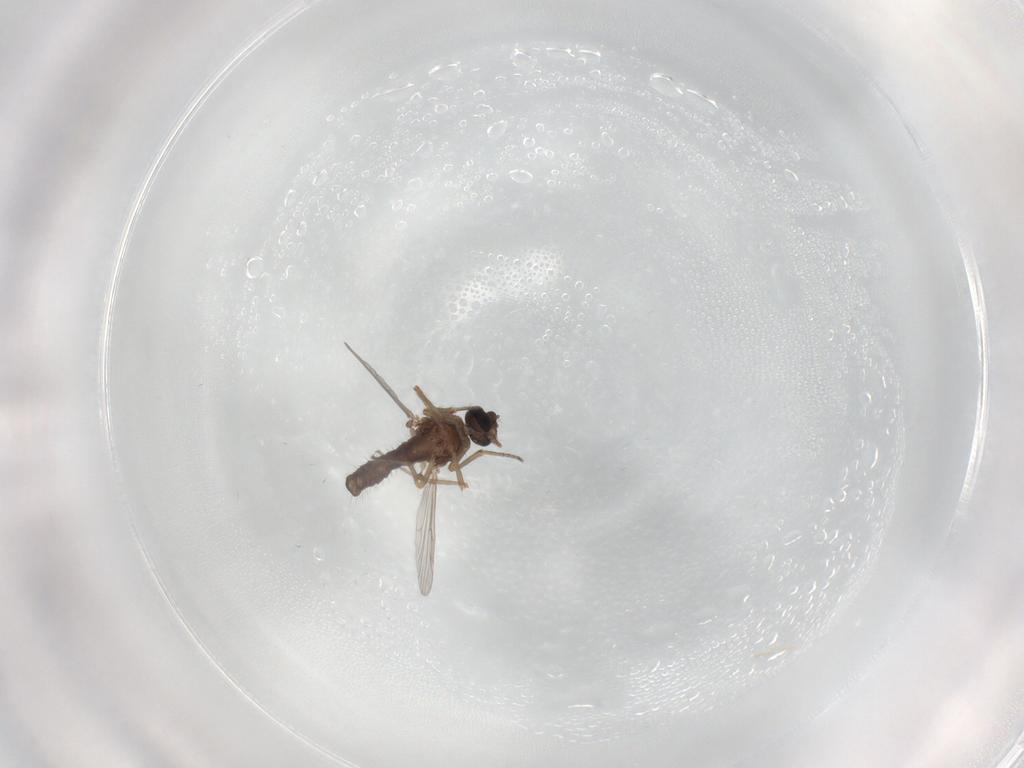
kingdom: Animalia
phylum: Arthropoda
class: Insecta
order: Diptera
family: Ceratopogonidae
